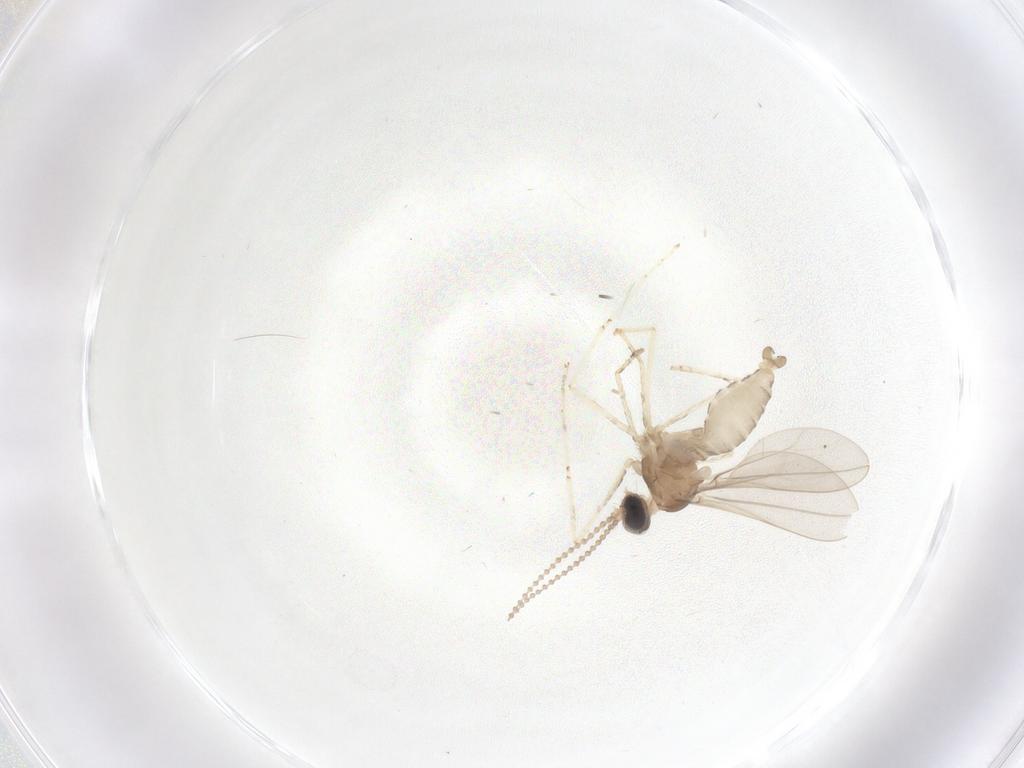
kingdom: Animalia
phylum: Arthropoda
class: Insecta
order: Diptera
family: Cecidomyiidae
